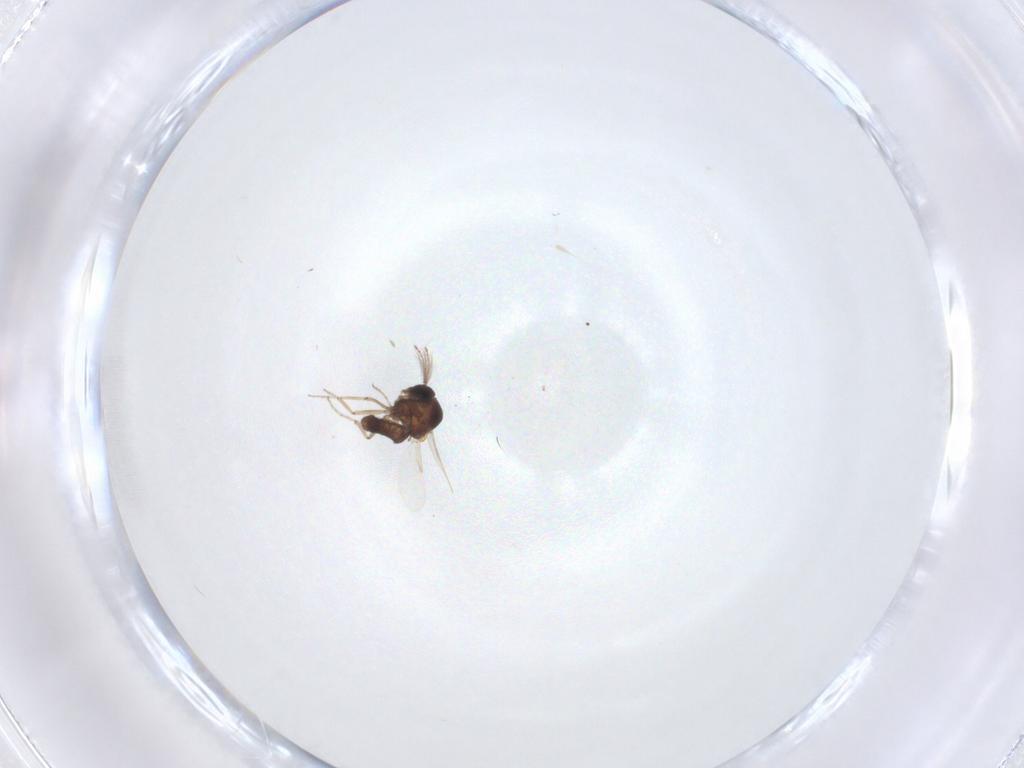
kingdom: Animalia
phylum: Arthropoda
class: Insecta
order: Diptera
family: Ceratopogonidae
